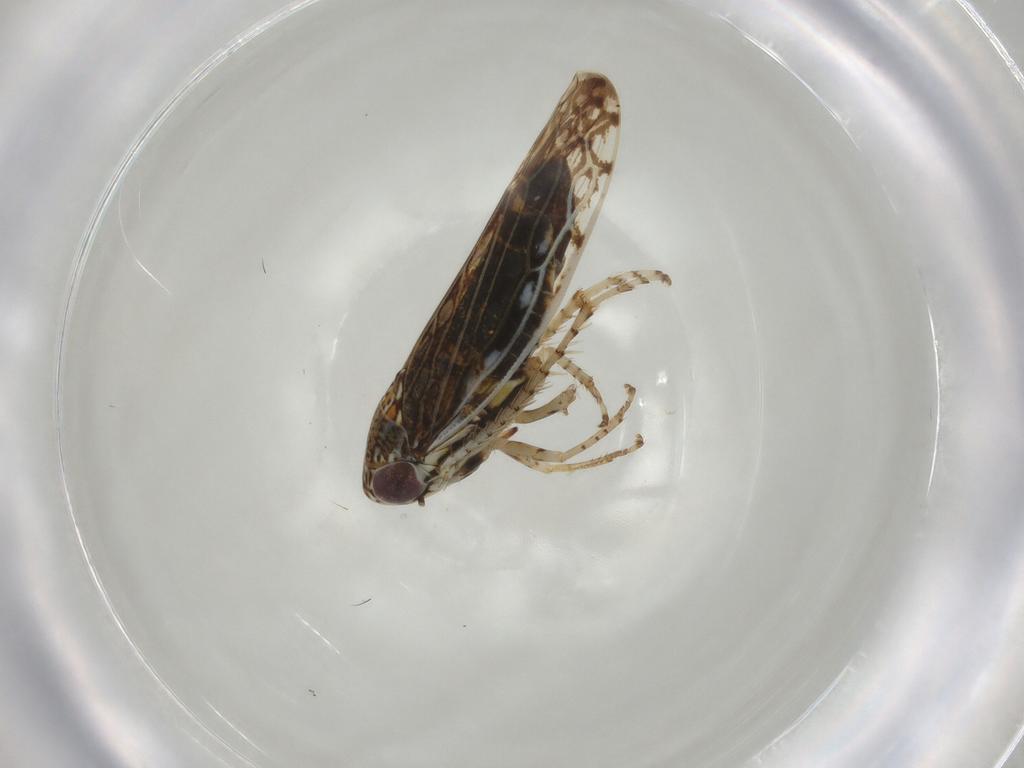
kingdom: Animalia
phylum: Arthropoda
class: Insecta
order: Hemiptera
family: Cicadellidae
